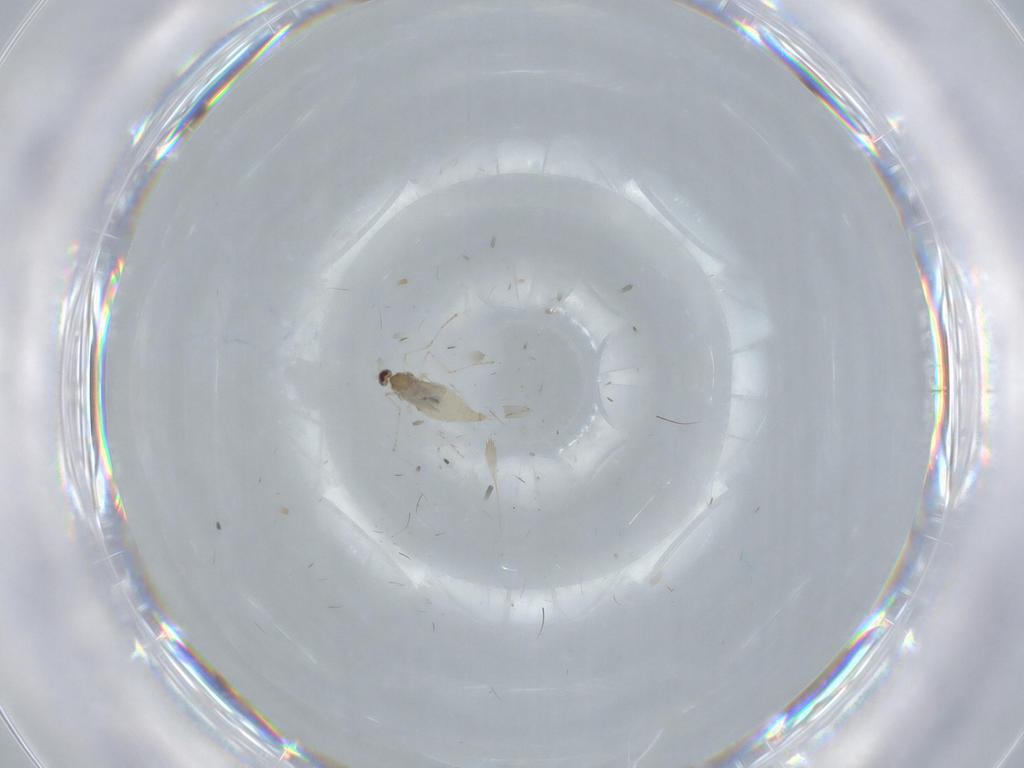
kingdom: Animalia
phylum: Arthropoda
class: Insecta
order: Diptera
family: Cecidomyiidae
